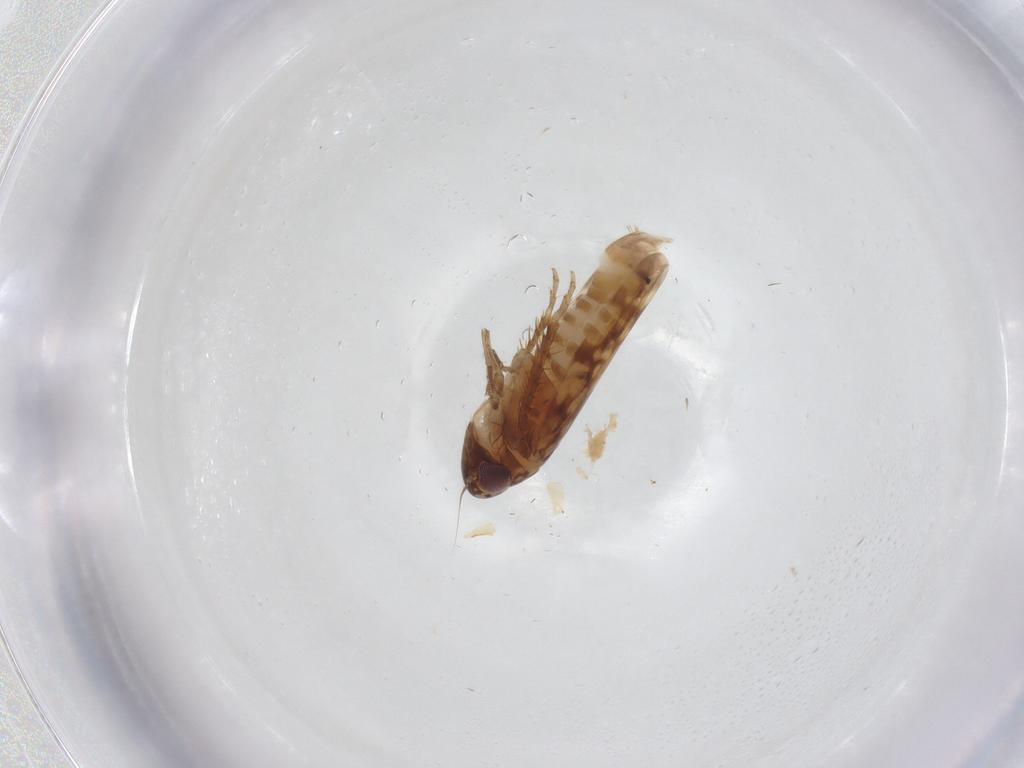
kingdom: Animalia
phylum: Arthropoda
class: Insecta
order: Hemiptera
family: Cicadellidae
